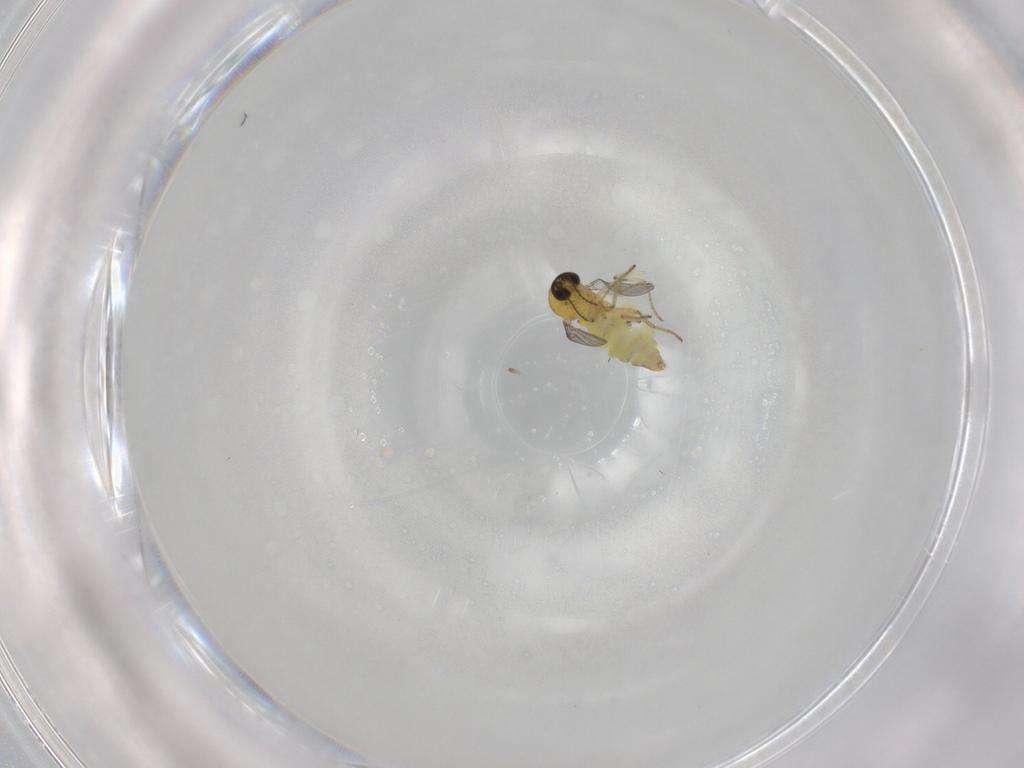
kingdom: Animalia
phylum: Arthropoda
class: Insecta
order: Diptera
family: Ceratopogonidae
